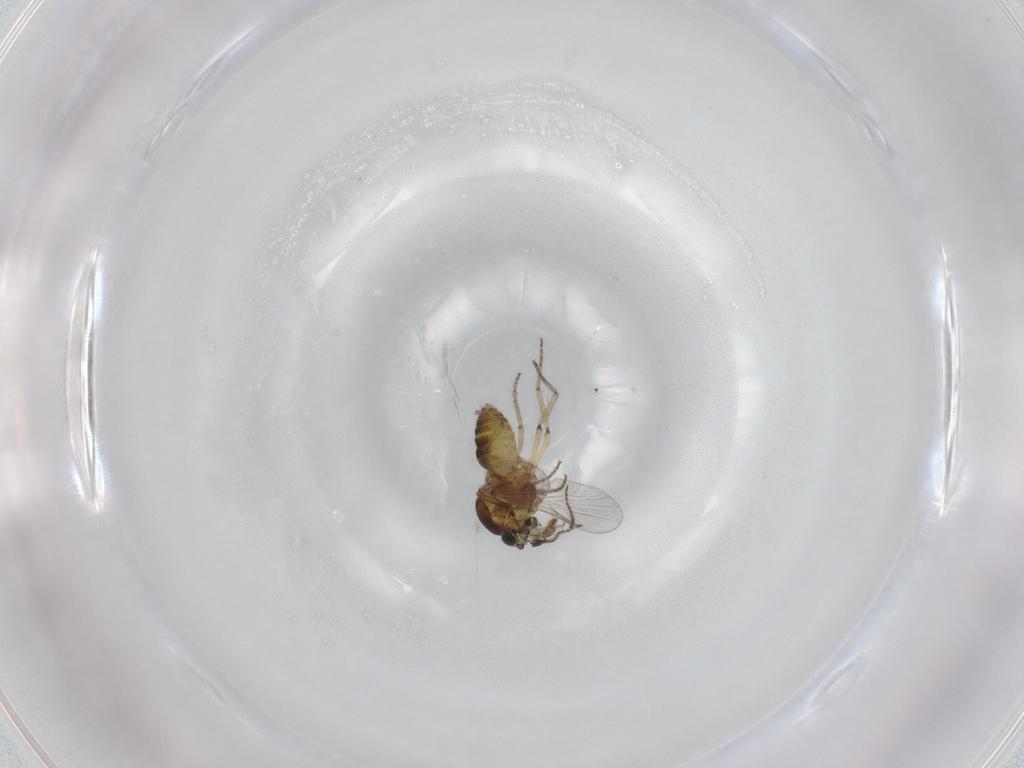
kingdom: Animalia
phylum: Arthropoda
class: Insecta
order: Diptera
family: Ceratopogonidae
